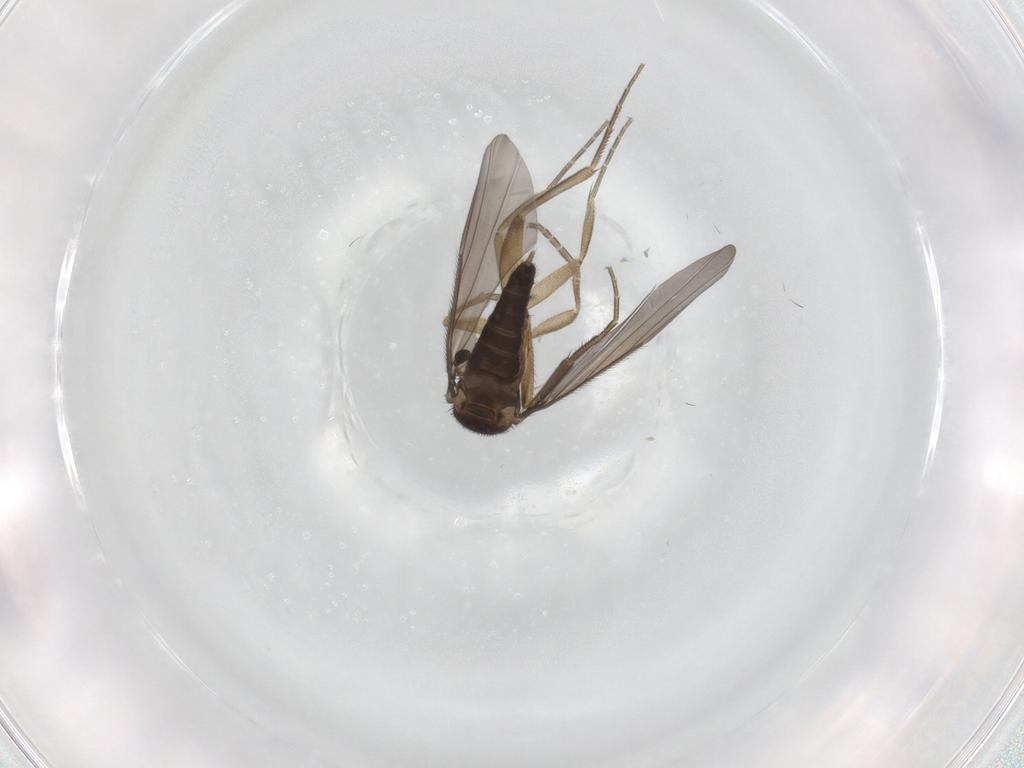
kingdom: Animalia
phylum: Arthropoda
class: Insecta
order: Diptera
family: Phoridae
